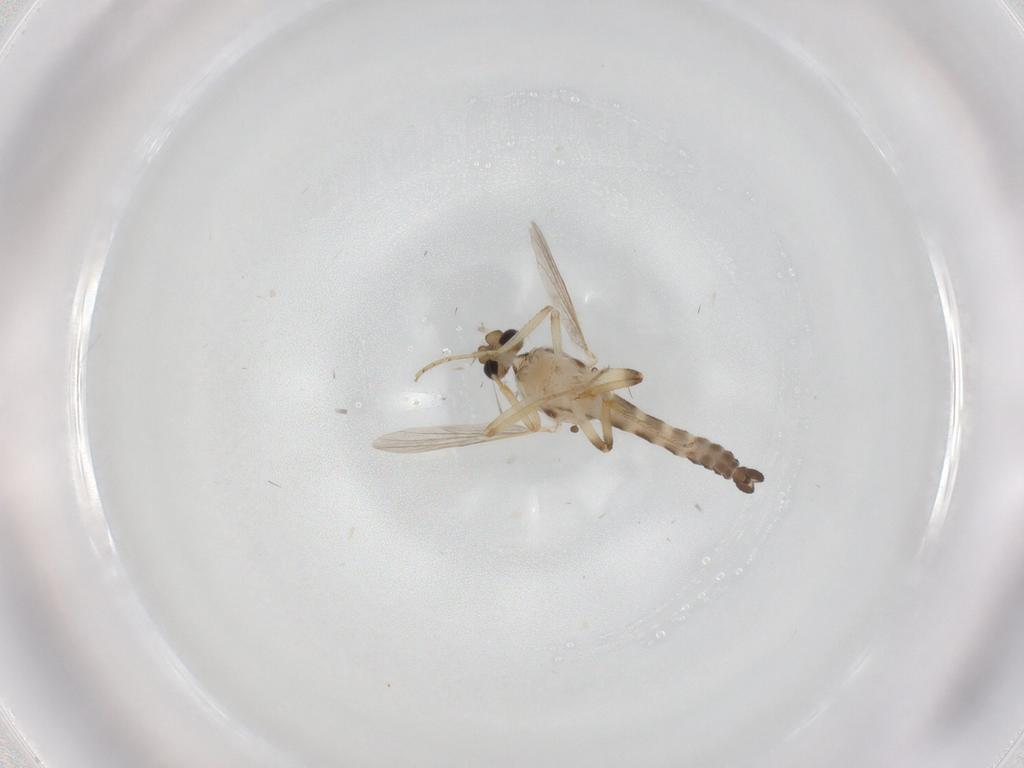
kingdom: Animalia
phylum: Arthropoda
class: Insecta
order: Diptera
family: Ceratopogonidae
